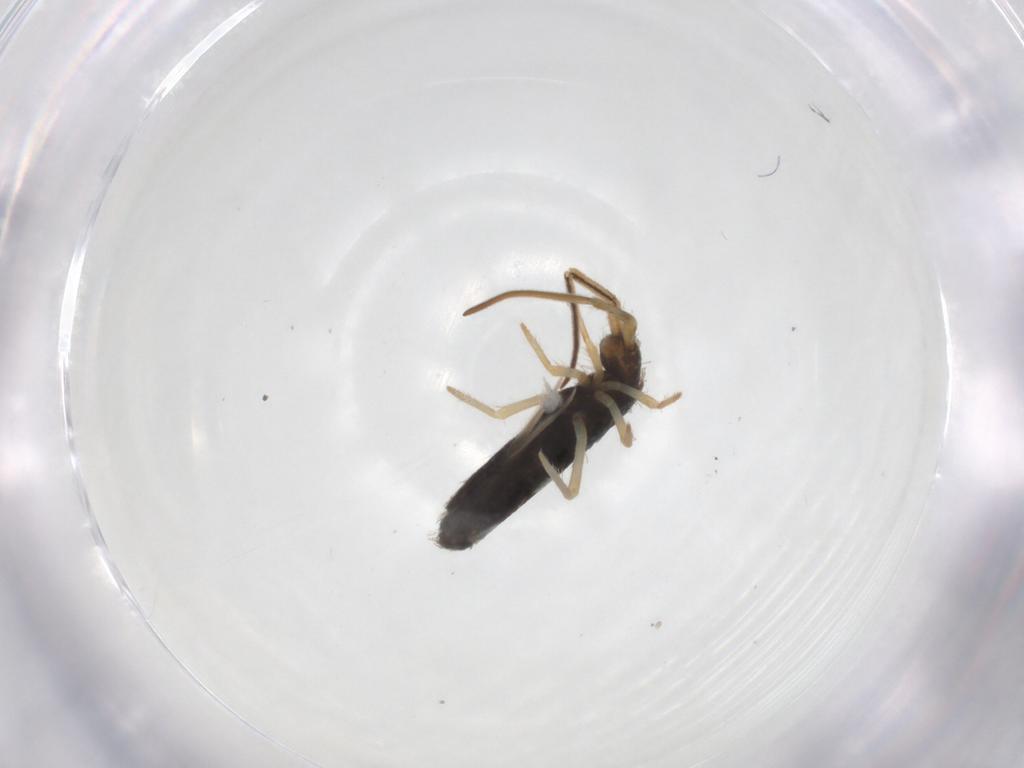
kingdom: Animalia
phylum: Arthropoda
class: Collembola
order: Entomobryomorpha
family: Entomobryidae
